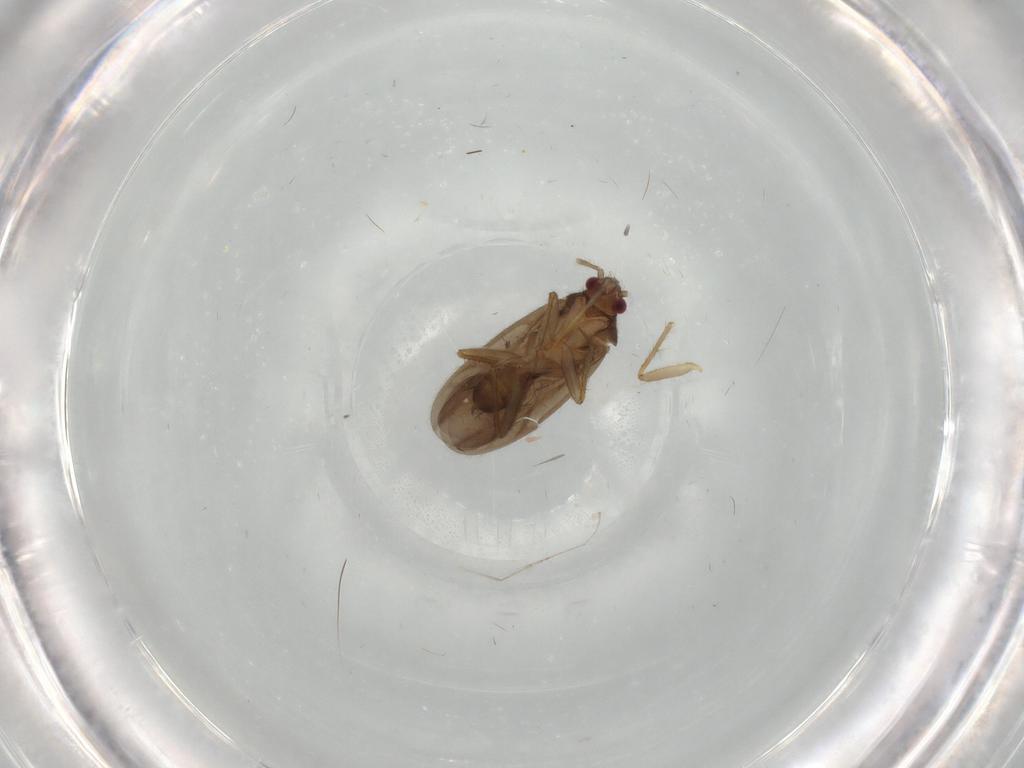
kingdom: Animalia
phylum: Arthropoda
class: Insecta
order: Hemiptera
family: Ceratocombidae
